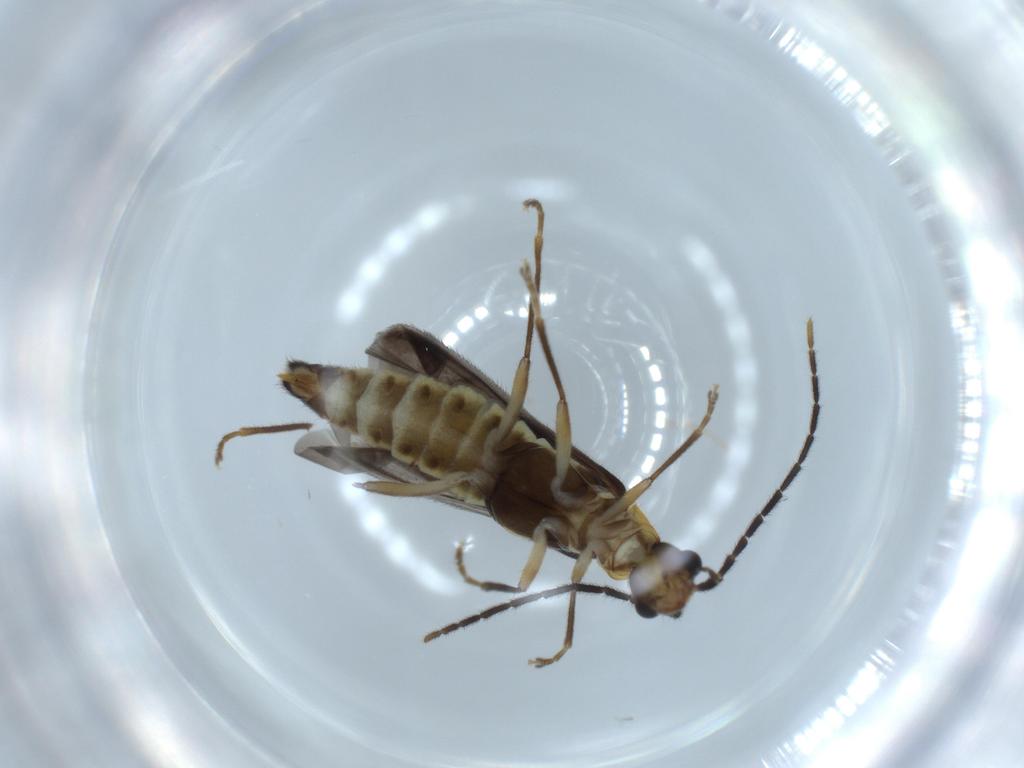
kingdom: Animalia
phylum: Arthropoda
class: Insecta
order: Coleoptera
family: Cantharidae
